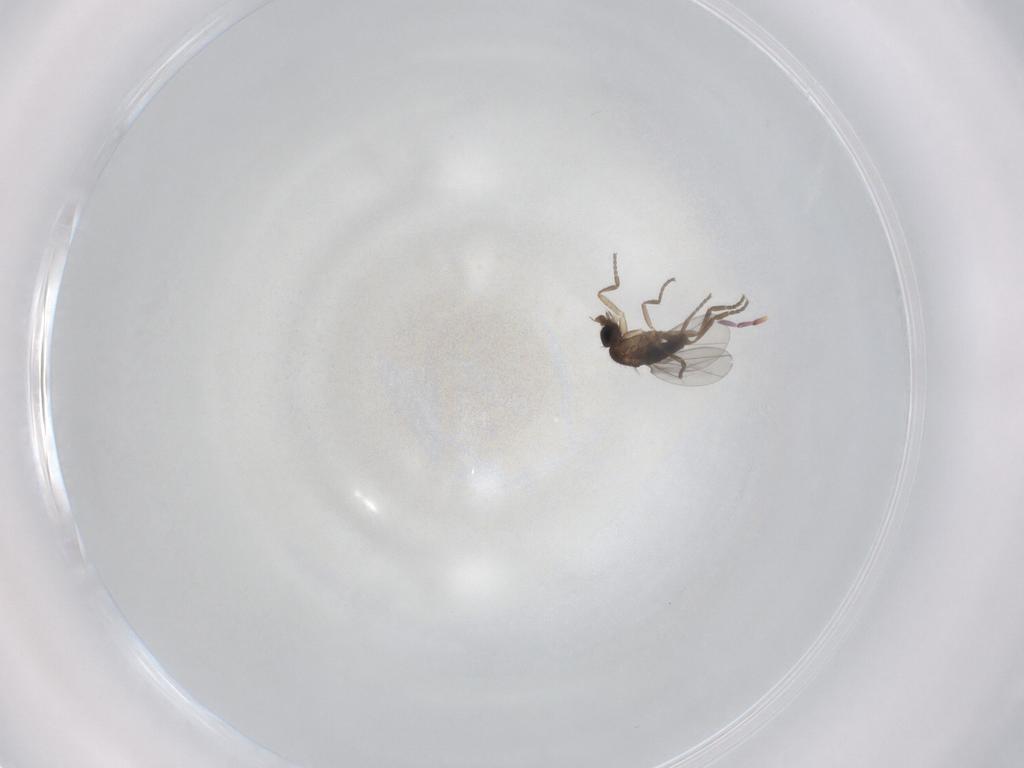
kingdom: Animalia
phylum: Arthropoda
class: Insecta
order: Diptera
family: Phoridae
